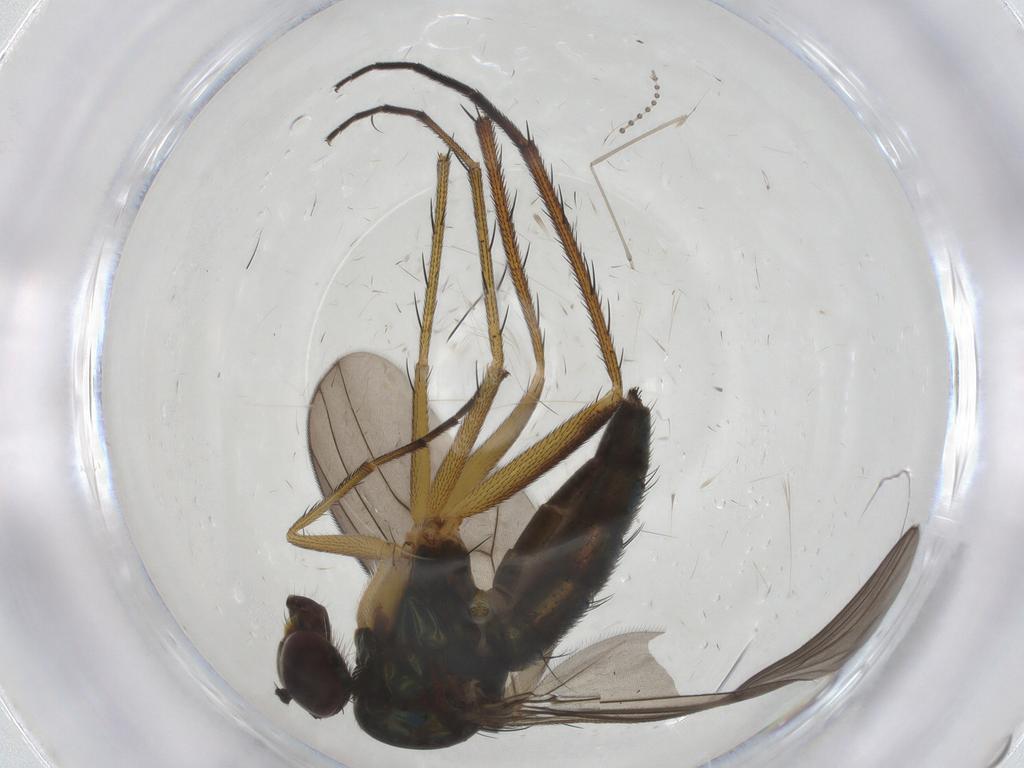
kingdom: Animalia
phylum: Arthropoda
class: Insecta
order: Diptera
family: Dolichopodidae
